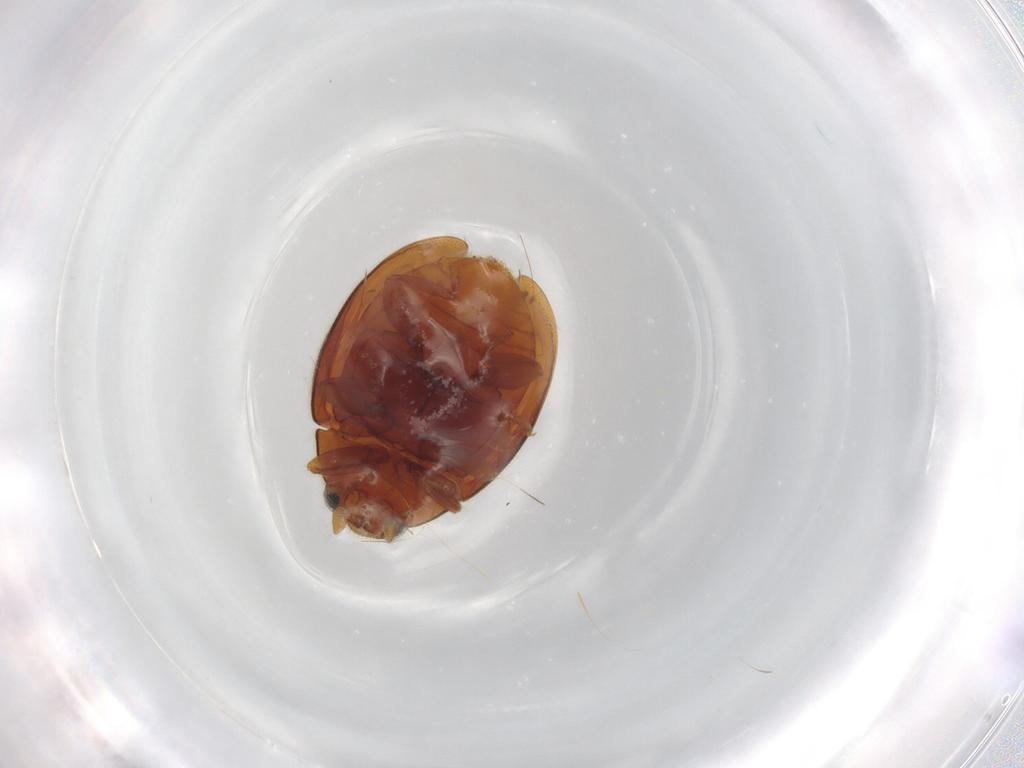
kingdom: Animalia
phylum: Arthropoda
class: Insecta
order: Coleoptera
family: Coccinellidae
